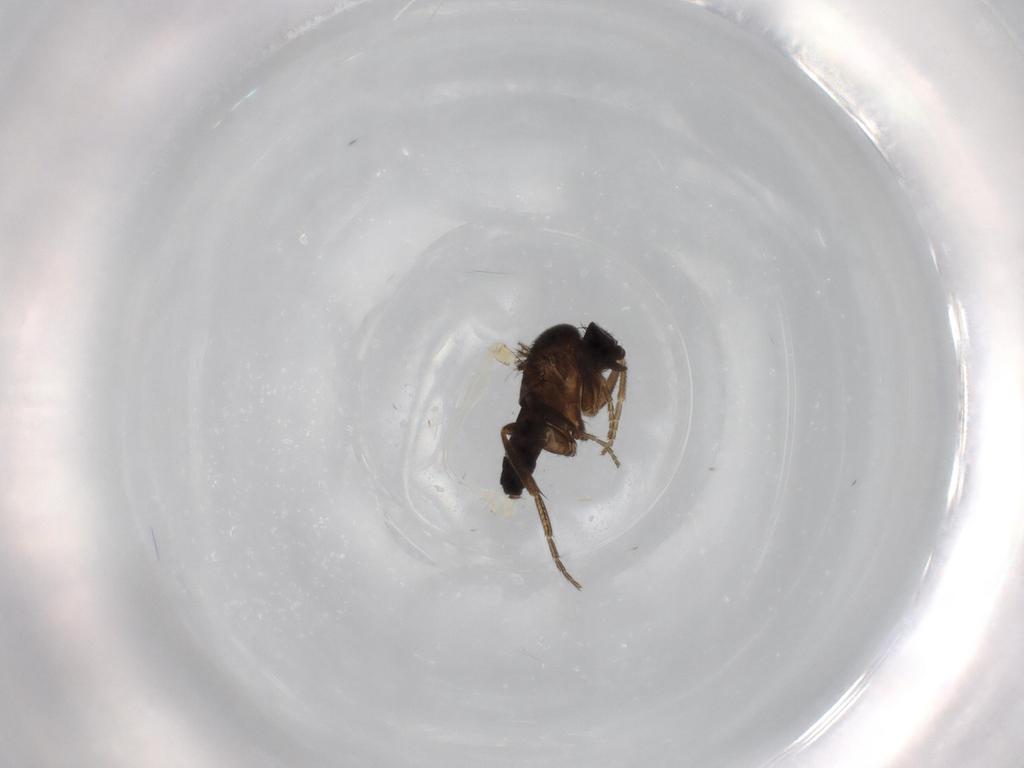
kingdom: Animalia
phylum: Arthropoda
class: Insecta
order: Diptera
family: Phoridae
